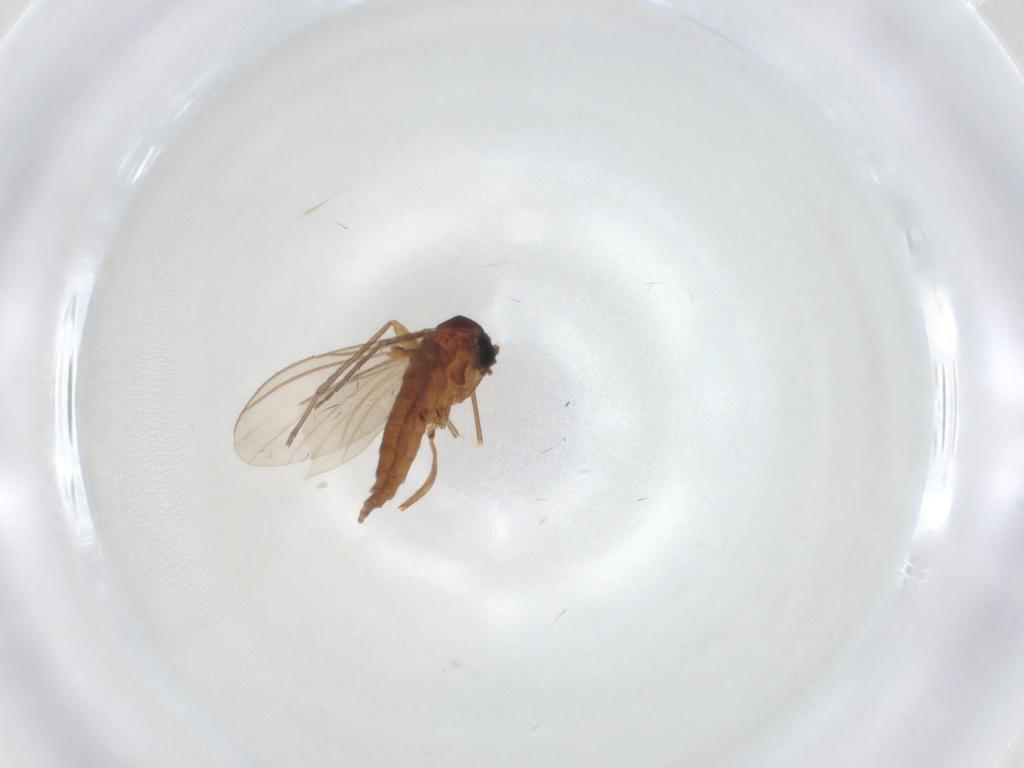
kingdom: Animalia
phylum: Arthropoda
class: Insecta
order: Diptera
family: Sciaridae
